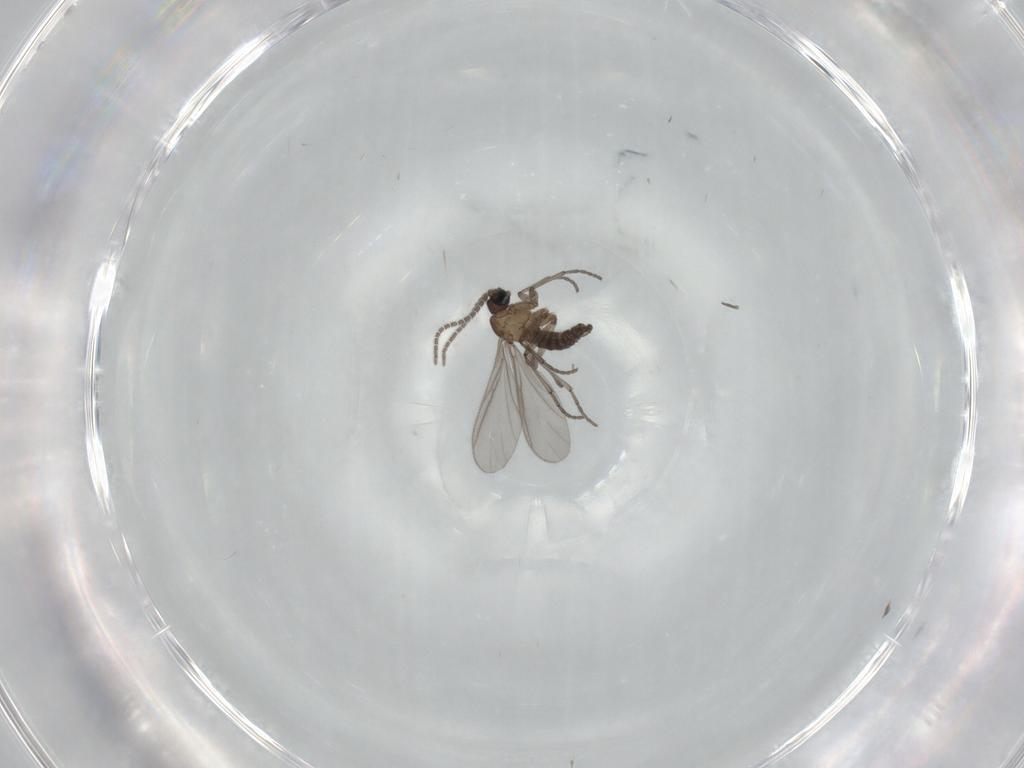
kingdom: Animalia
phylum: Arthropoda
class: Insecta
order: Diptera
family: Sciaridae
